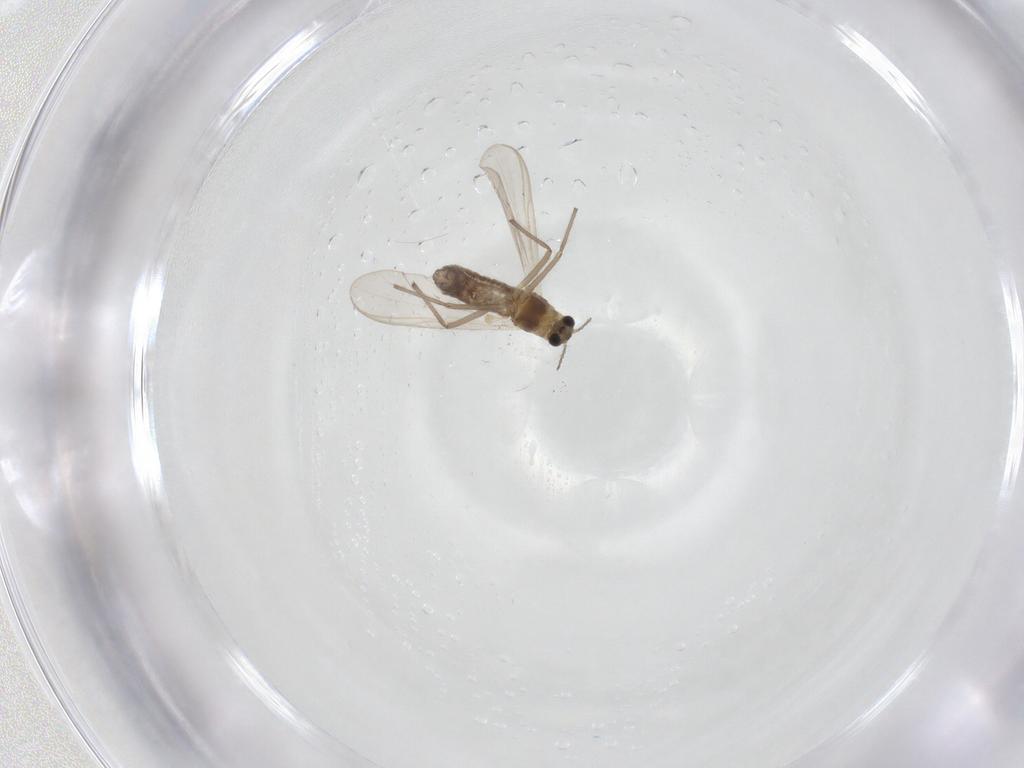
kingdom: Animalia
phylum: Arthropoda
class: Insecta
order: Diptera
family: Chironomidae
